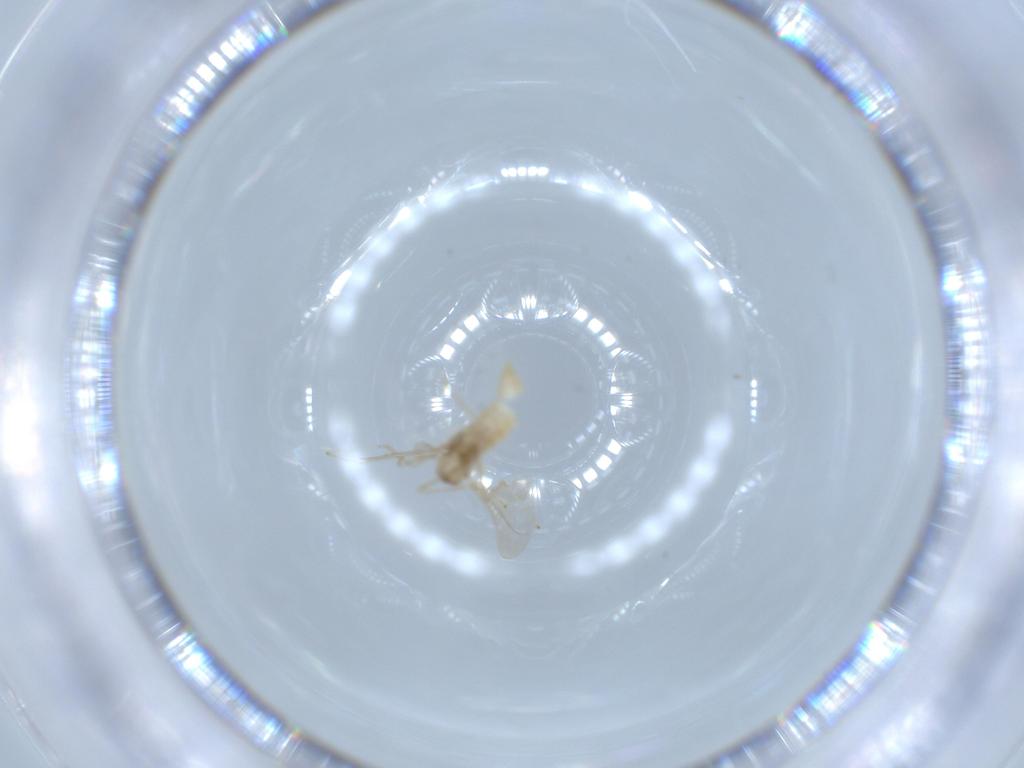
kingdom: Animalia
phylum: Arthropoda
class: Insecta
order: Diptera
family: Cecidomyiidae
